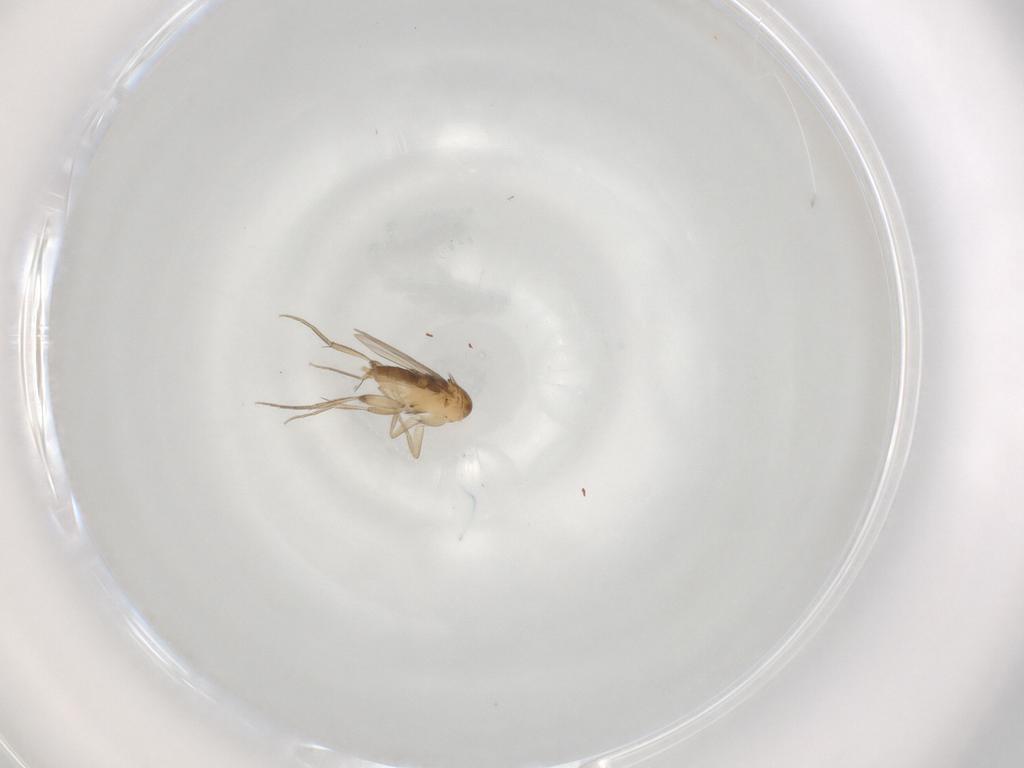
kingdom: Animalia
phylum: Arthropoda
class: Insecta
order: Diptera
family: Phoridae
